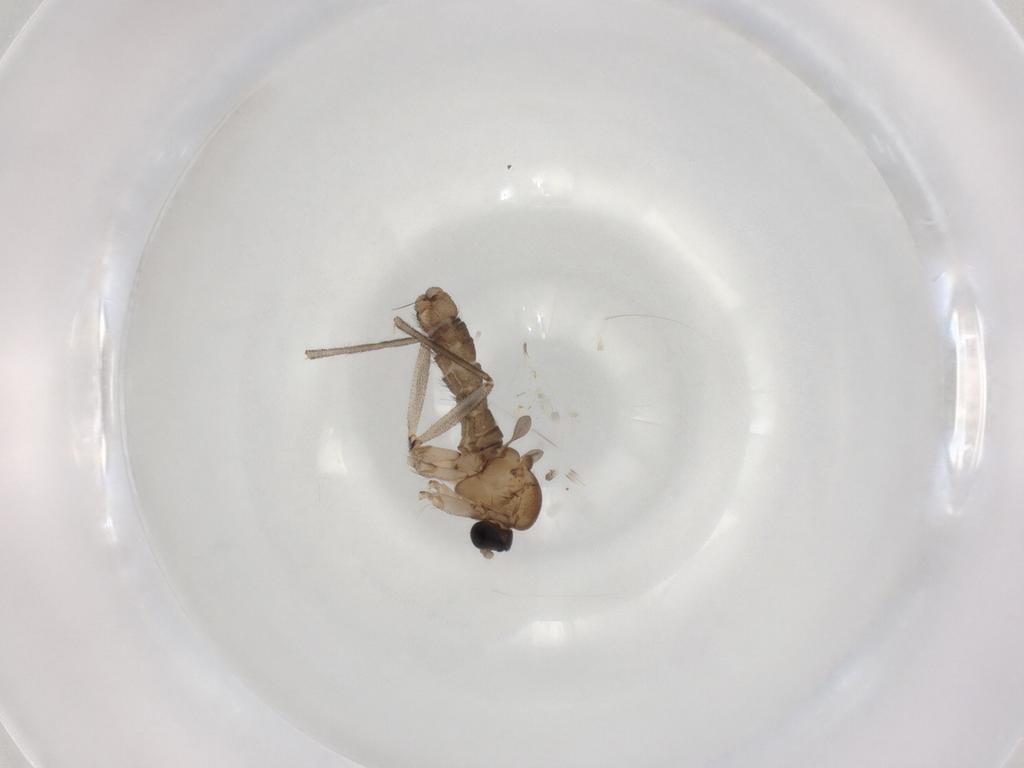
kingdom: Animalia
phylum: Arthropoda
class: Insecta
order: Diptera
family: Sciaridae
